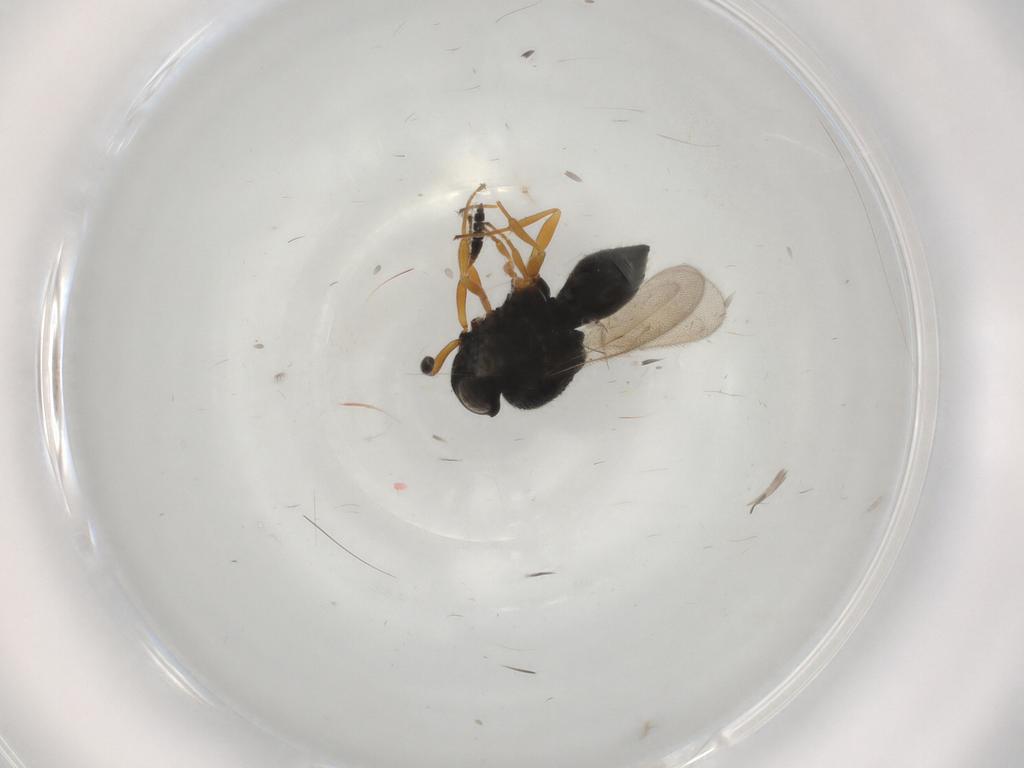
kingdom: Animalia
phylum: Arthropoda
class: Insecta
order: Hymenoptera
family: Scelionidae
